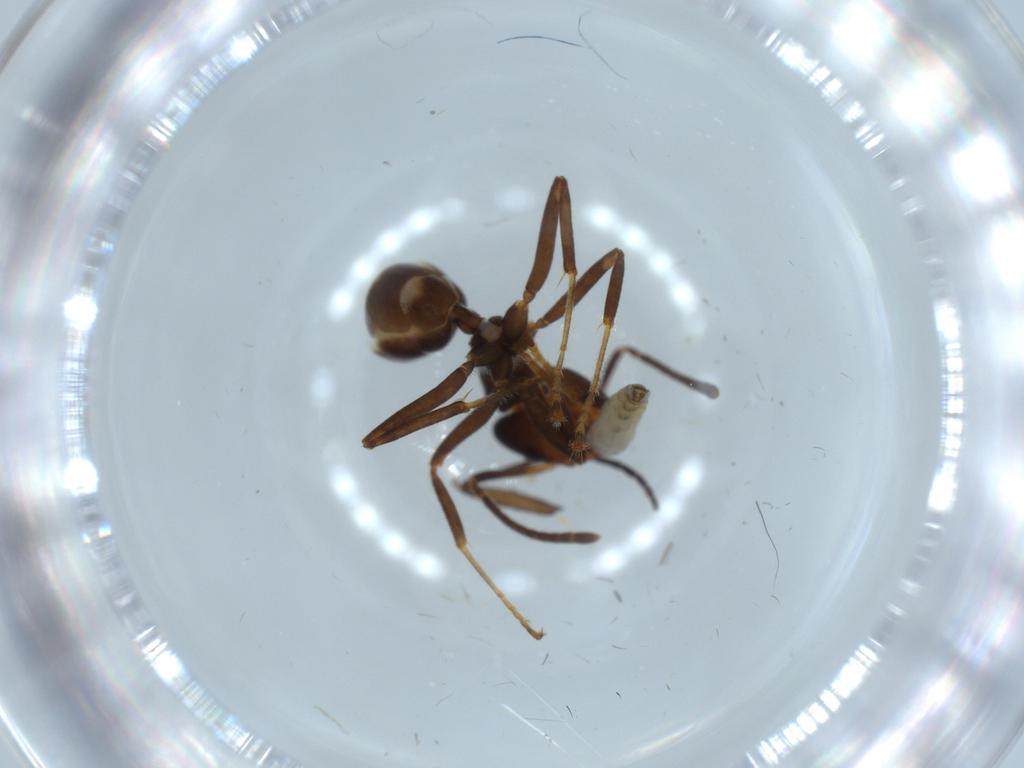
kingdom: Animalia
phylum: Arthropoda
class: Insecta
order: Hymenoptera
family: Formicidae
